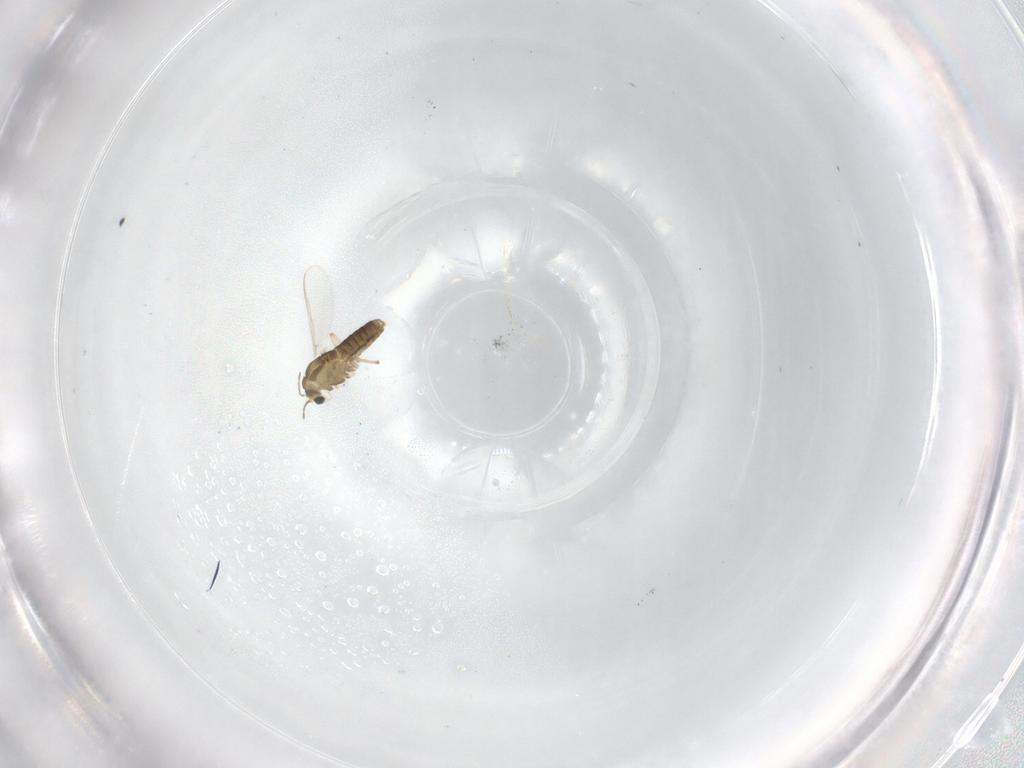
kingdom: Animalia
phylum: Arthropoda
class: Insecta
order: Diptera
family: Chironomidae
